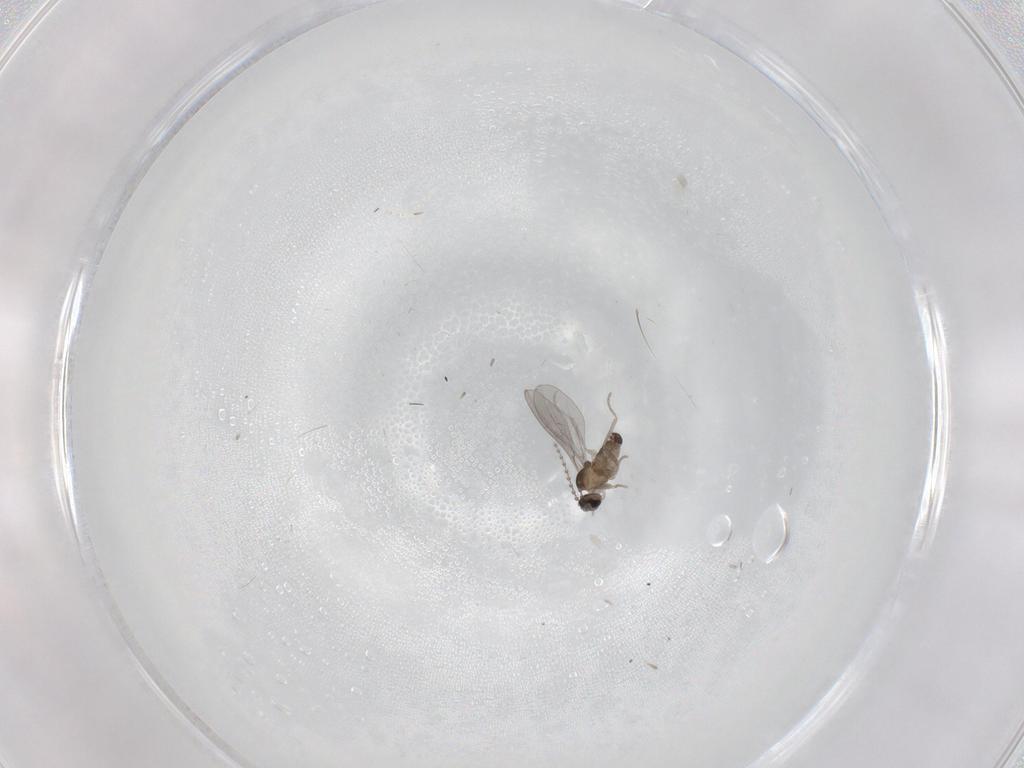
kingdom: Animalia
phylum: Arthropoda
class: Insecta
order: Diptera
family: Cecidomyiidae
